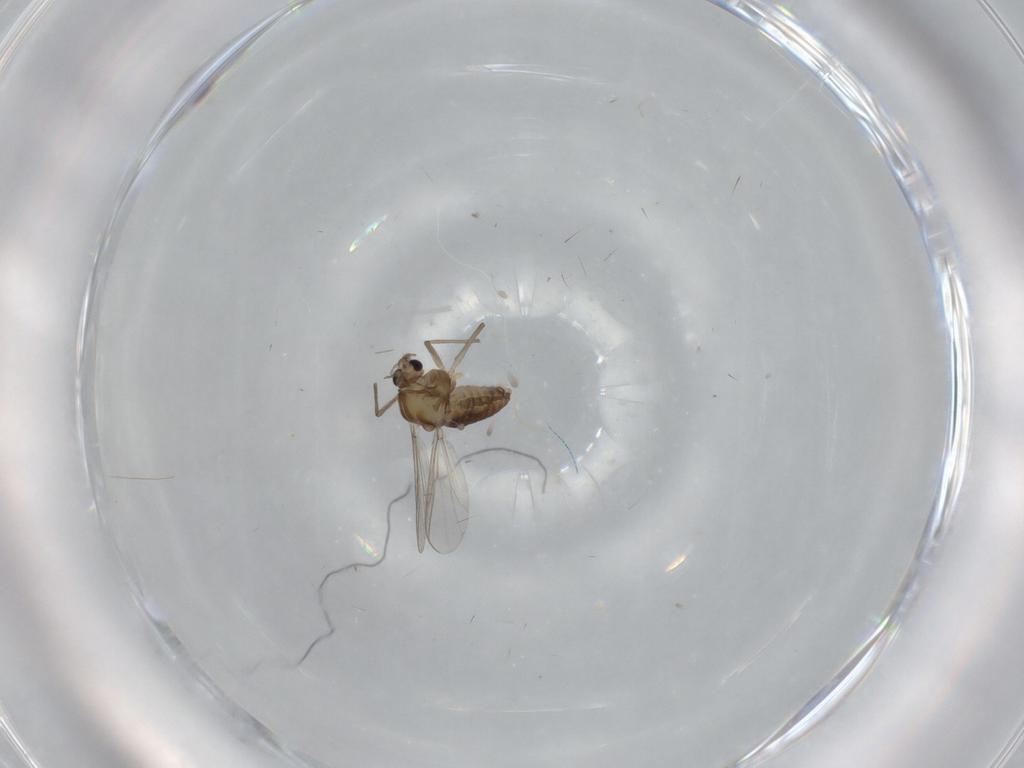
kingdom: Animalia
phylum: Arthropoda
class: Insecta
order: Diptera
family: Chironomidae
